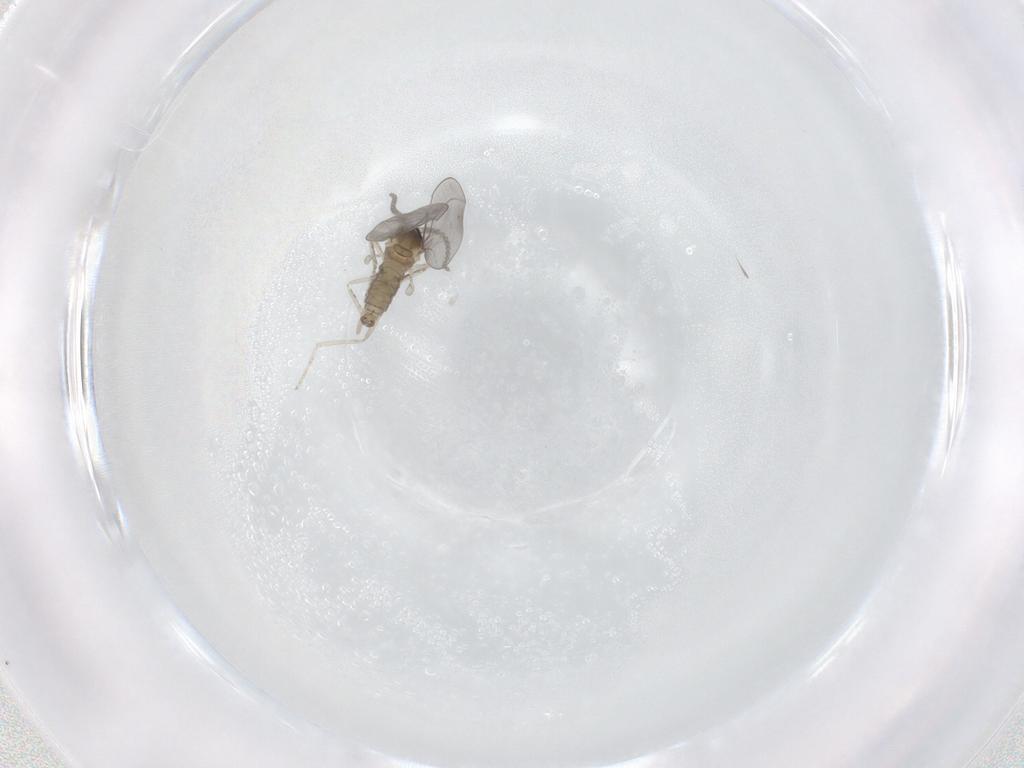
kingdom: Animalia
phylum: Arthropoda
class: Insecta
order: Diptera
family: Cecidomyiidae
